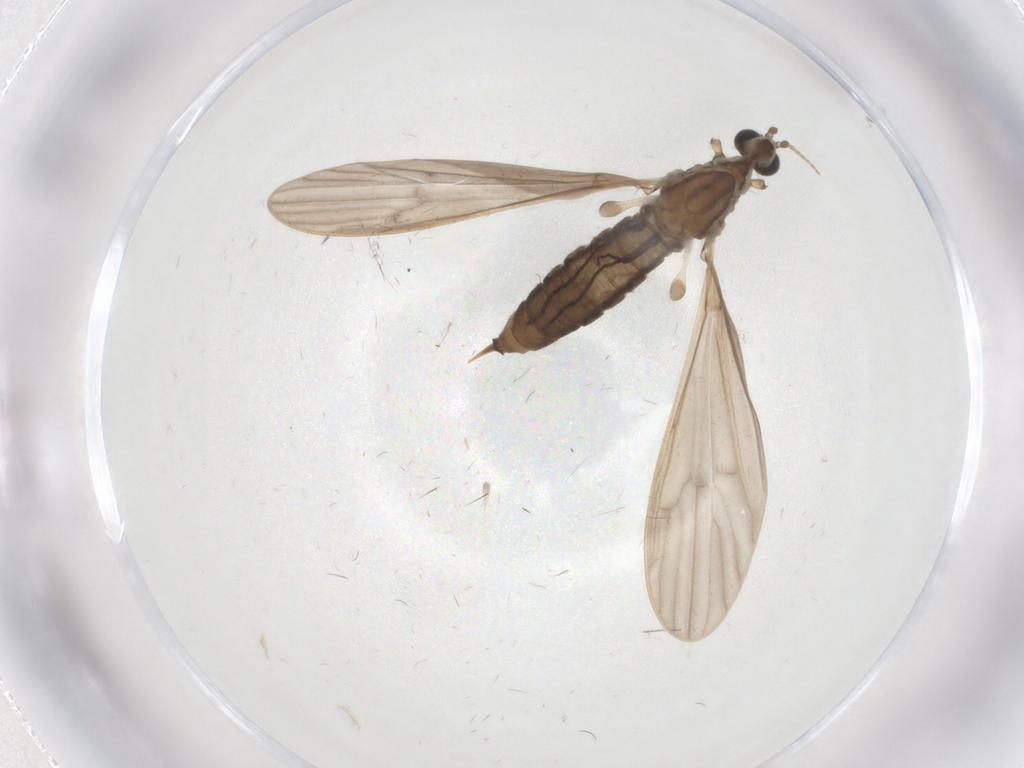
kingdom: Animalia
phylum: Arthropoda
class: Insecta
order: Diptera
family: Limoniidae
